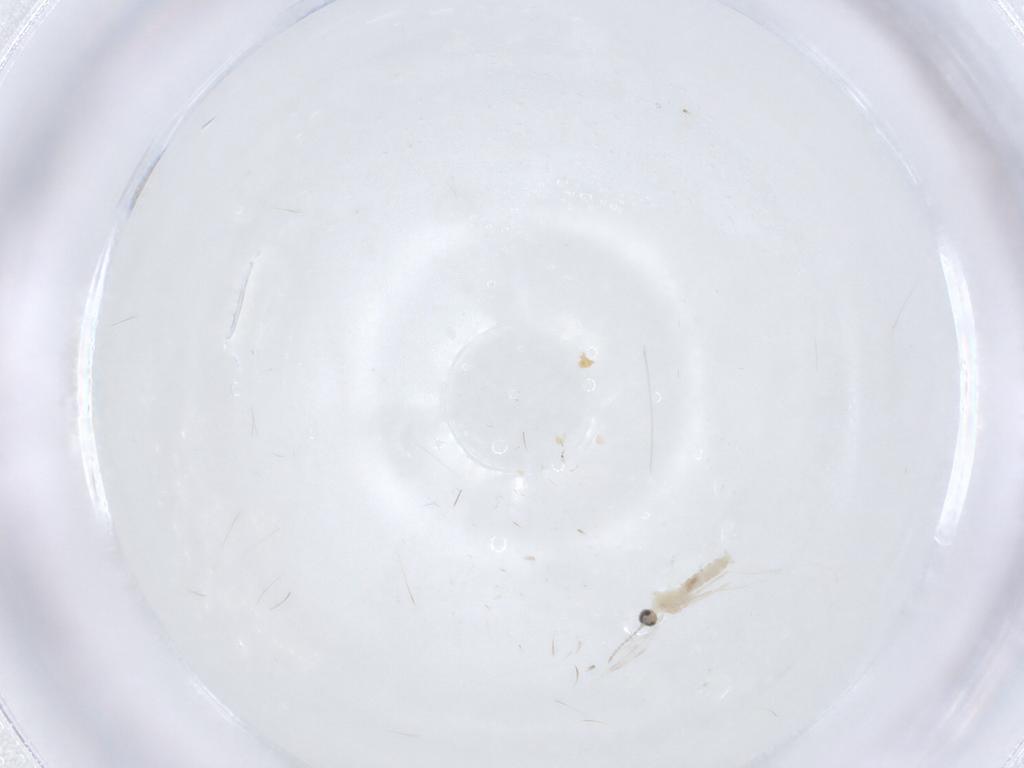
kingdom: Animalia
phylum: Arthropoda
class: Insecta
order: Diptera
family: Cecidomyiidae
